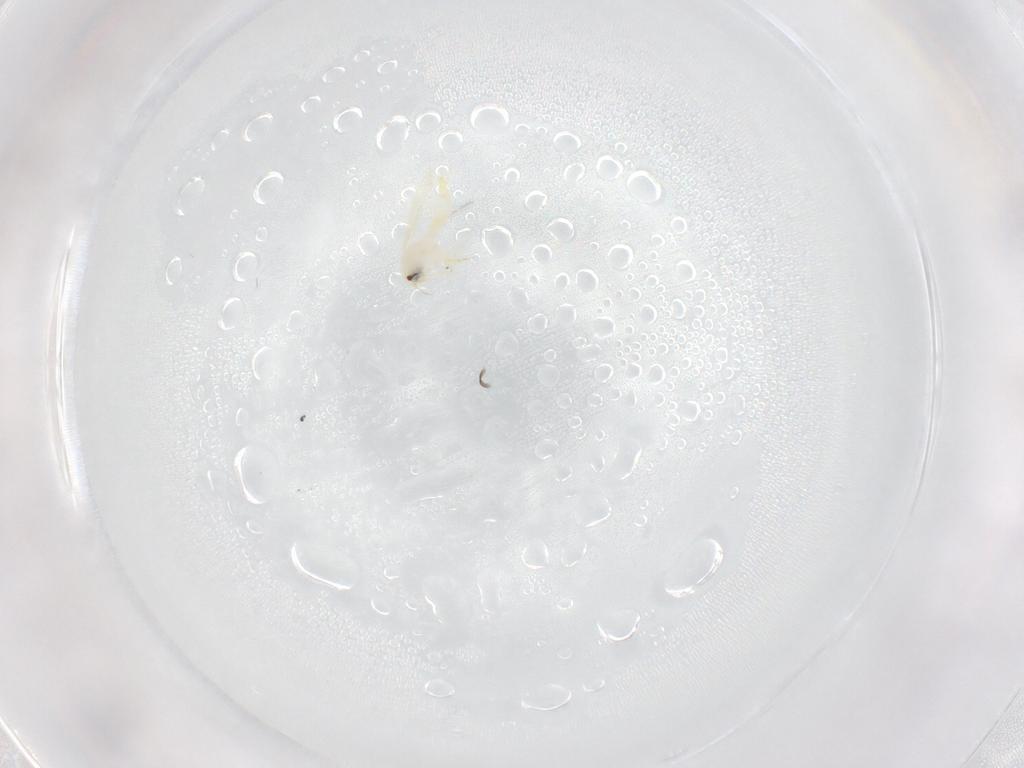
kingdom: Animalia
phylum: Arthropoda
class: Insecta
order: Hemiptera
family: Aleyrodidae
